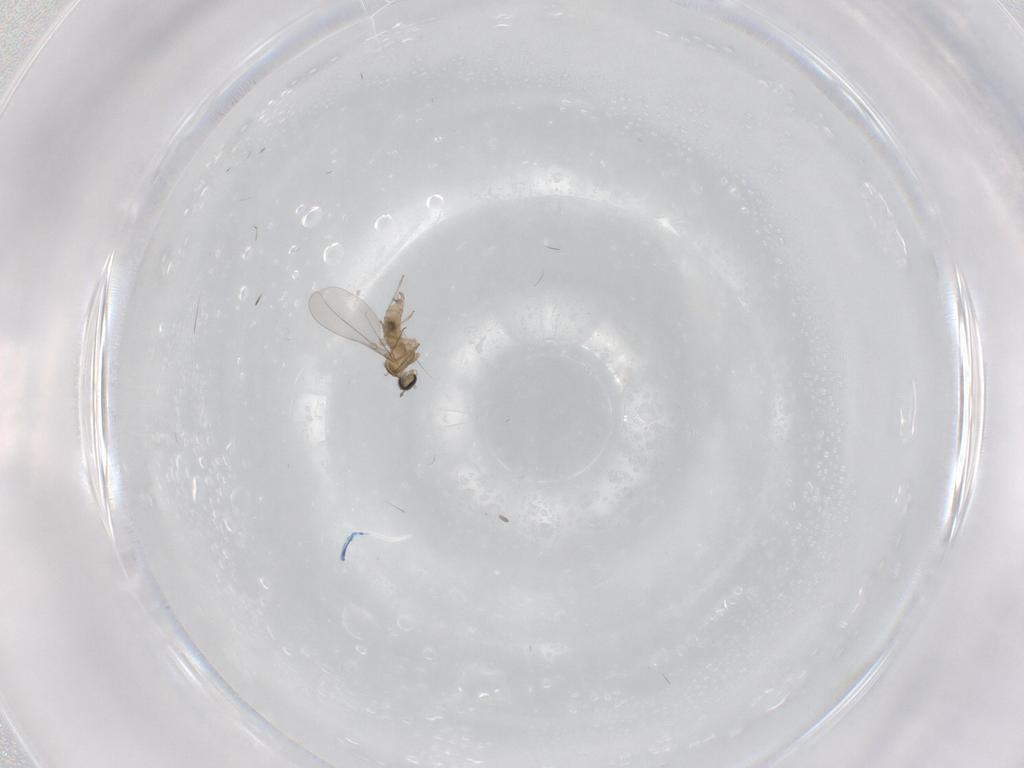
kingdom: Animalia
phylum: Arthropoda
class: Insecta
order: Diptera
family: Cecidomyiidae
